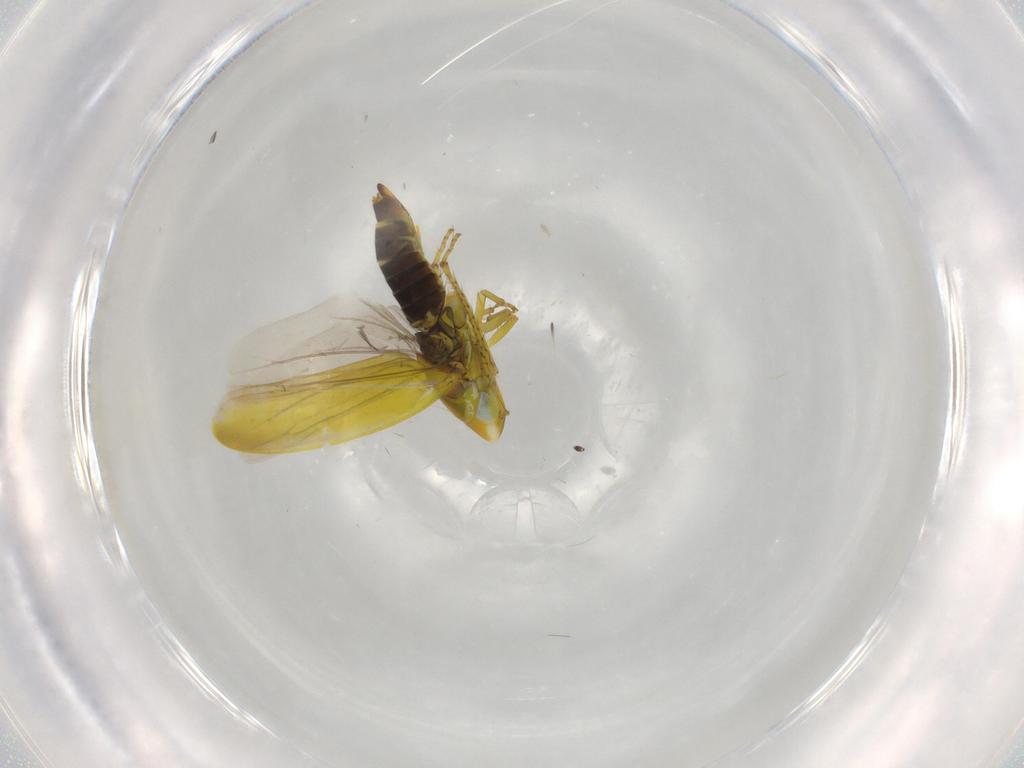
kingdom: Animalia
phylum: Arthropoda
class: Insecta
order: Hemiptera
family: Cicadellidae
